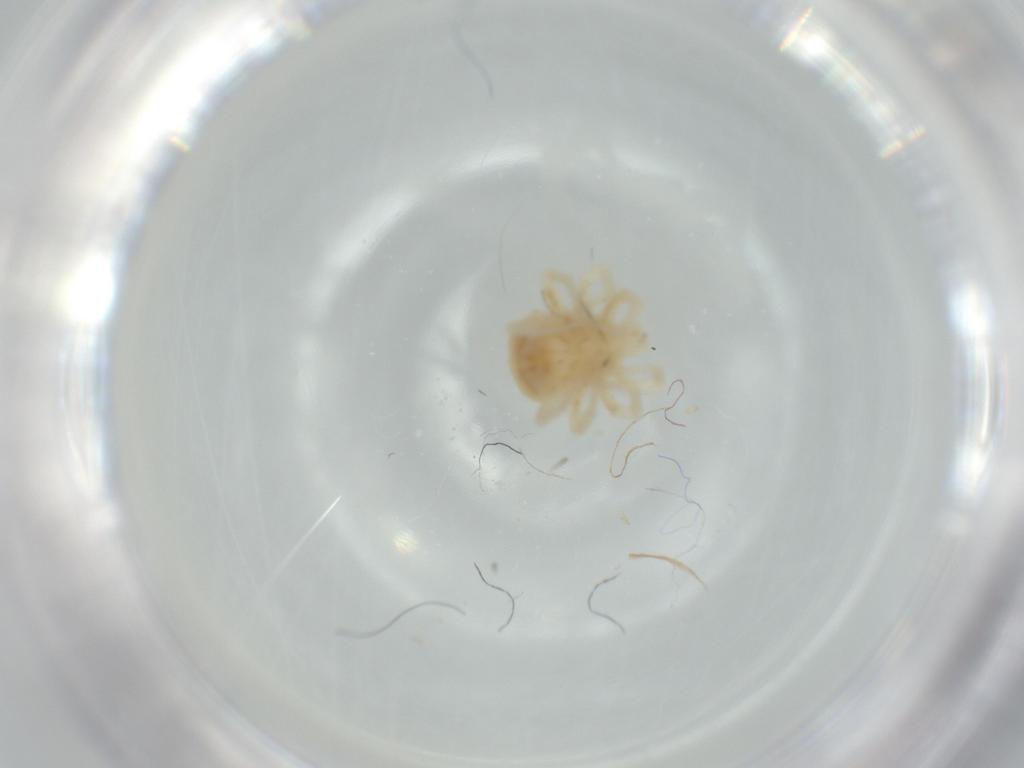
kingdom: Animalia
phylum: Arthropoda
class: Arachnida
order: Trombidiformes
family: Anystidae
